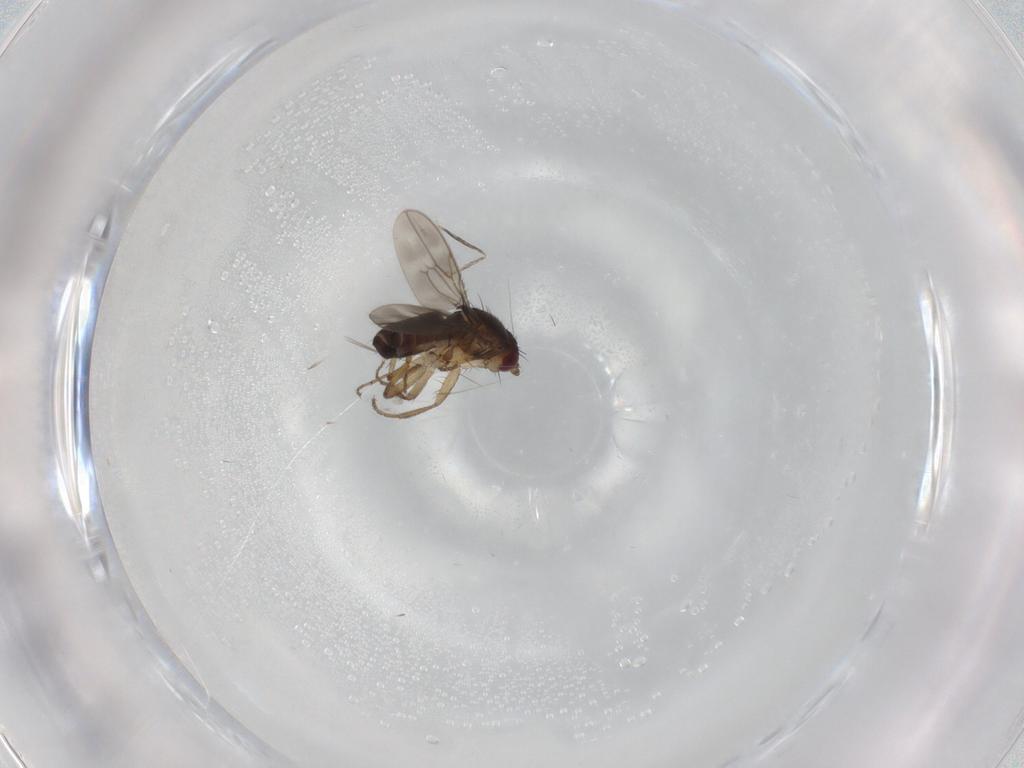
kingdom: Animalia
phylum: Arthropoda
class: Insecta
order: Diptera
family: Sphaeroceridae
